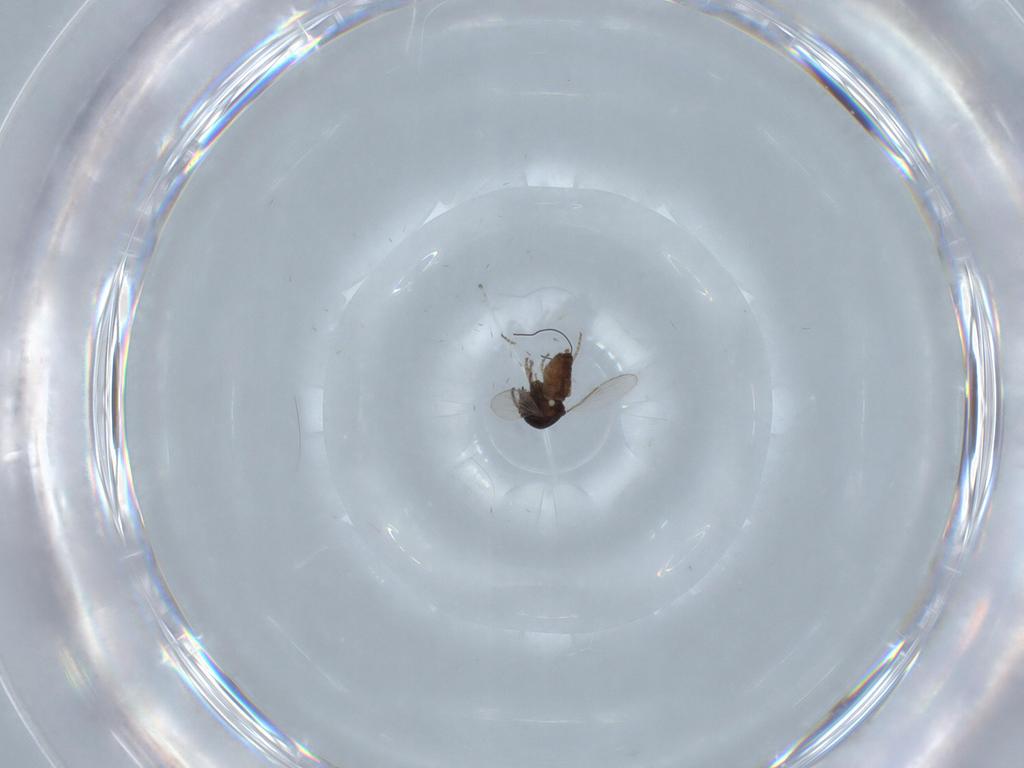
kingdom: Animalia
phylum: Arthropoda
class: Insecta
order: Diptera
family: Ceratopogonidae
